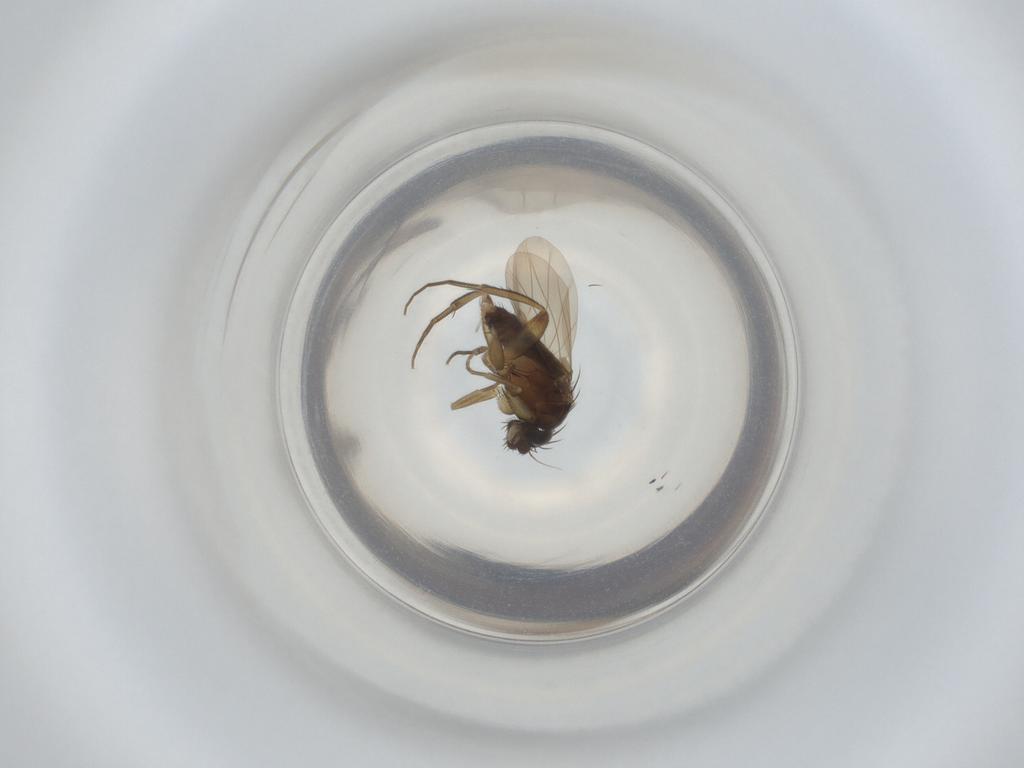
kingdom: Animalia
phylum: Arthropoda
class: Insecta
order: Diptera
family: Phoridae
